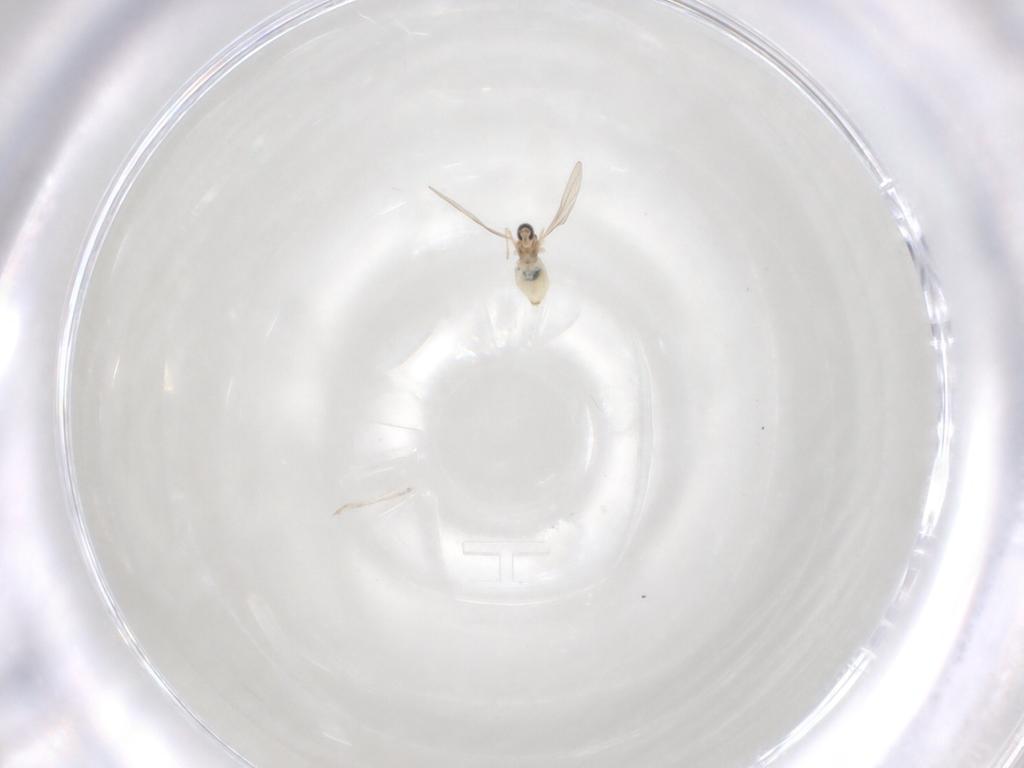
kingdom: Animalia
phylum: Arthropoda
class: Insecta
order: Diptera
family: Cecidomyiidae
